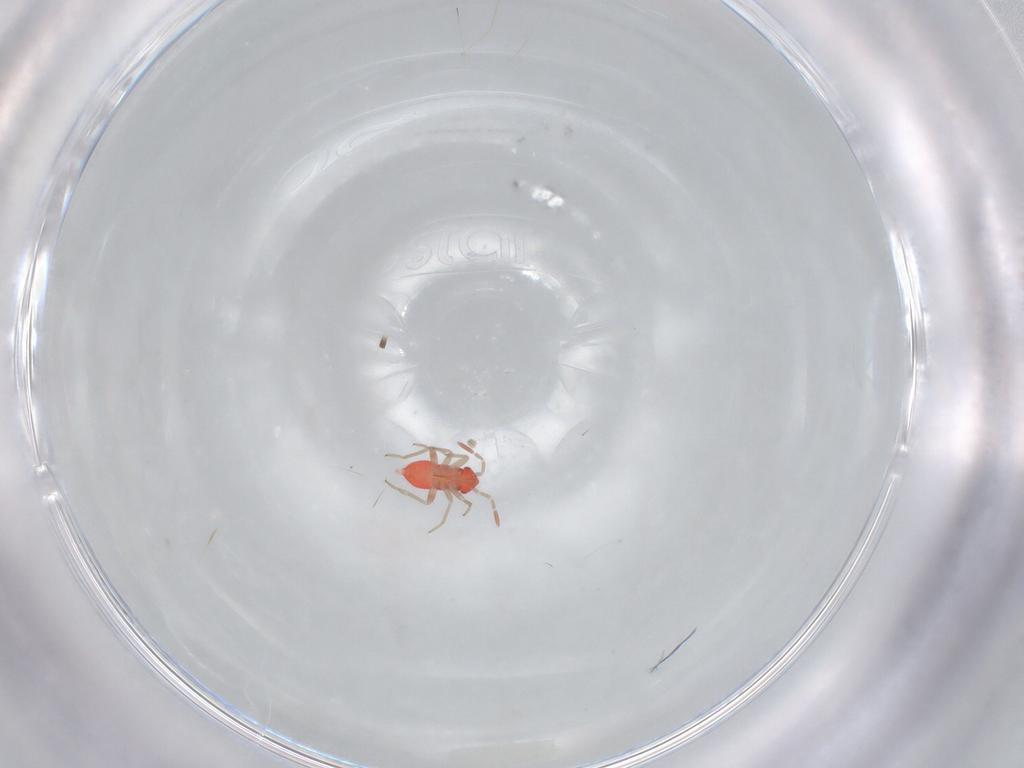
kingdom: Animalia
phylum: Arthropoda
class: Insecta
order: Hemiptera
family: Miridae
